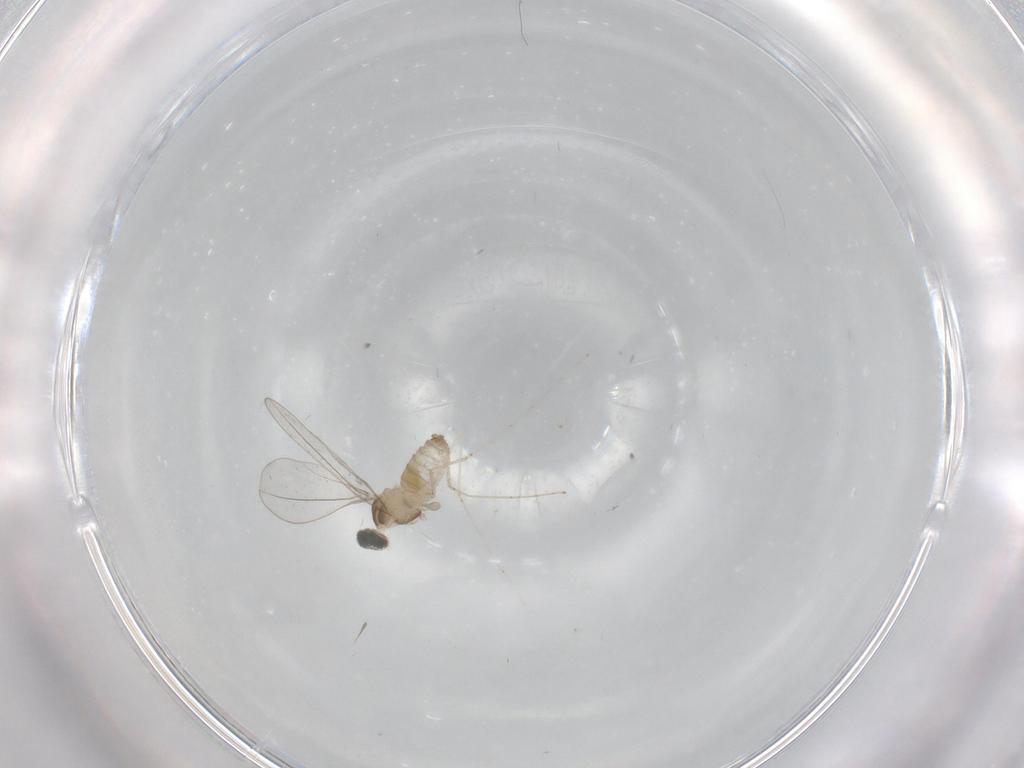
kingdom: Animalia
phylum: Arthropoda
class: Insecta
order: Diptera
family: Cecidomyiidae
